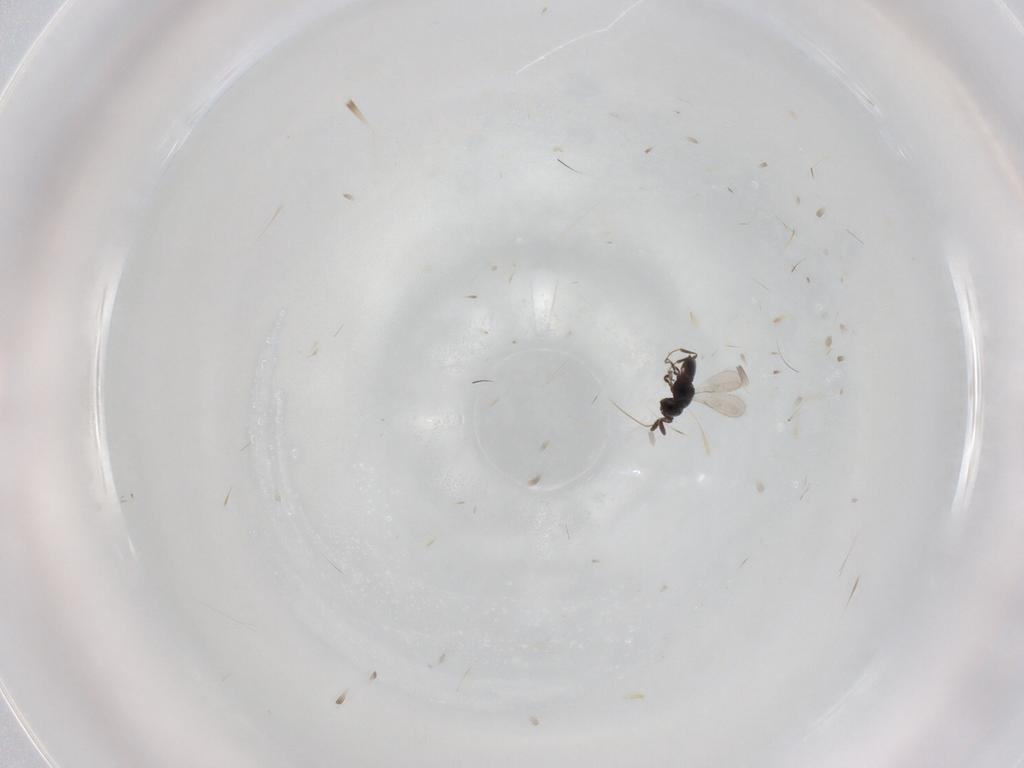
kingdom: Animalia
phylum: Arthropoda
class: Insecta
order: Hymenoptera
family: Scelionidae
